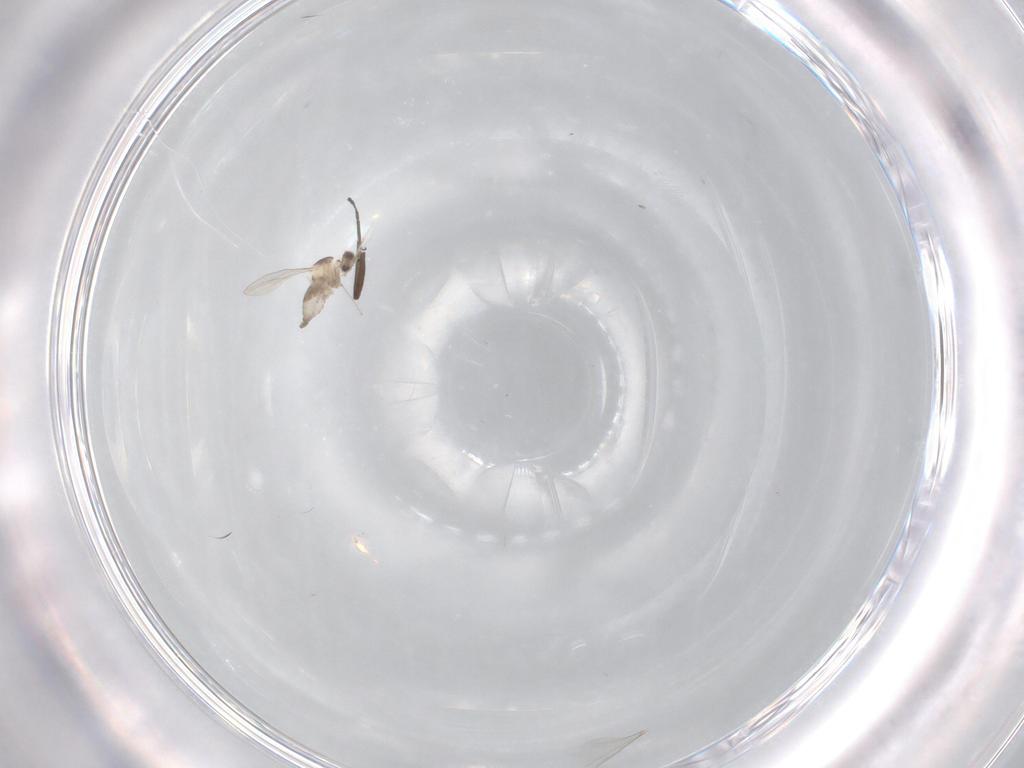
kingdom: Animalia
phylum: Arthropoda
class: Insecta
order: Diptera
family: Cecidomyiidae
